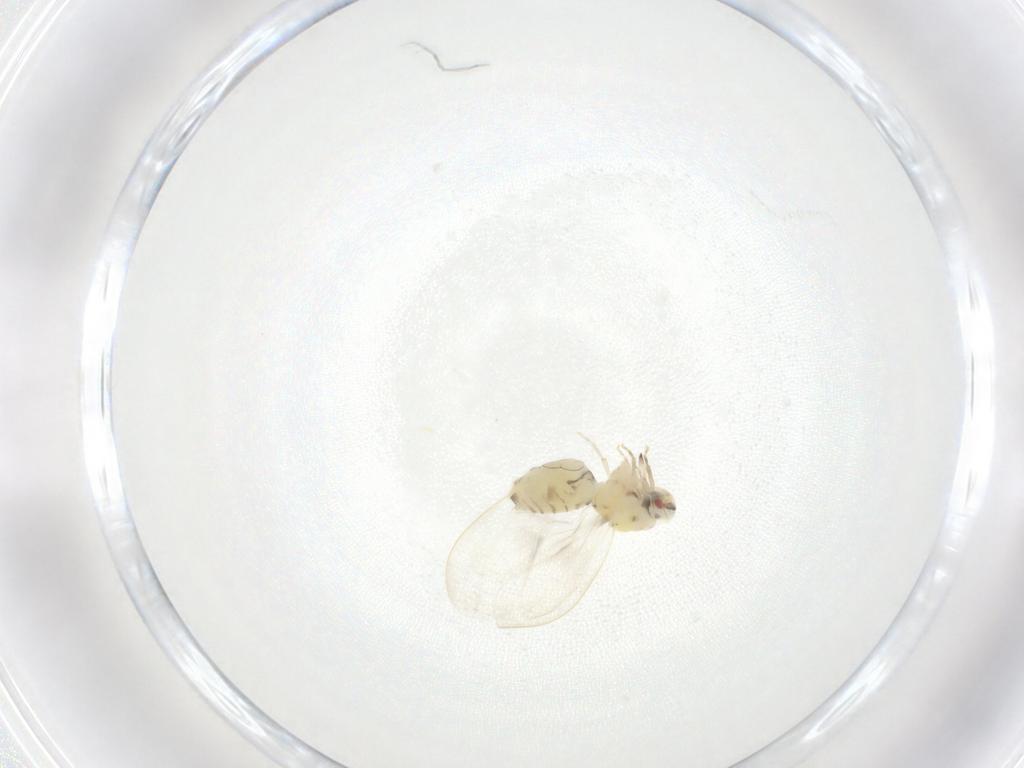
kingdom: Animalia
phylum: Arthropoda
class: Insecta
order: Hemiptera
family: Aleyrodidae
